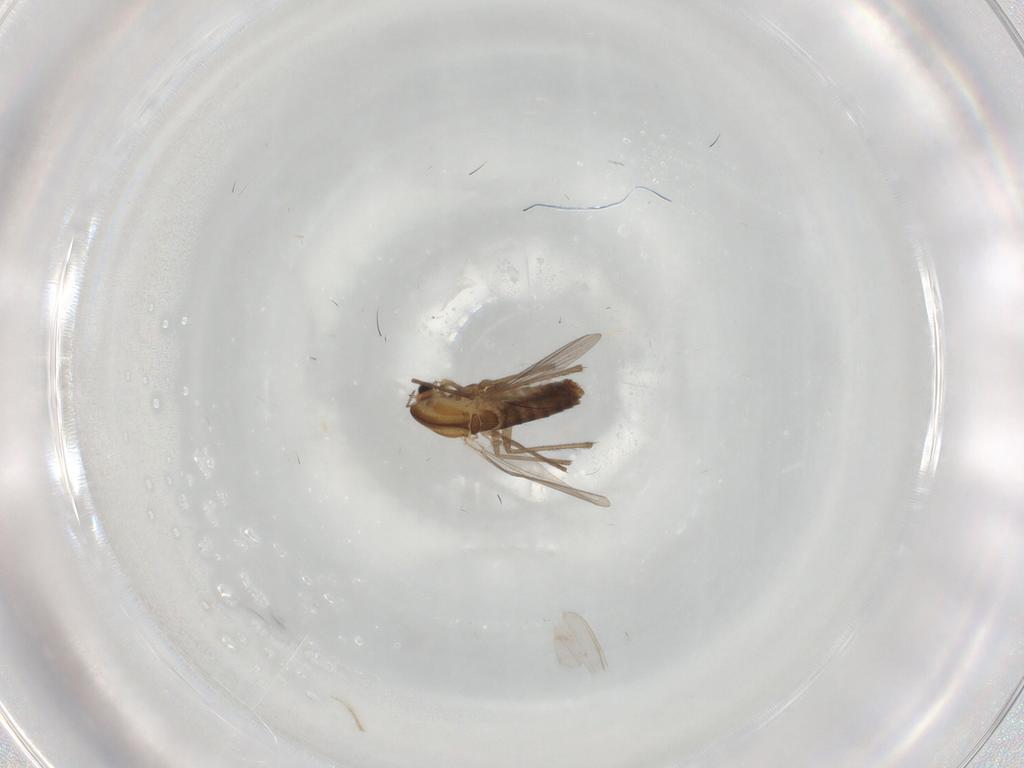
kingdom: Animalia
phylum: Arthropoda
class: Insecta
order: Diptera
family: Chironomidae
